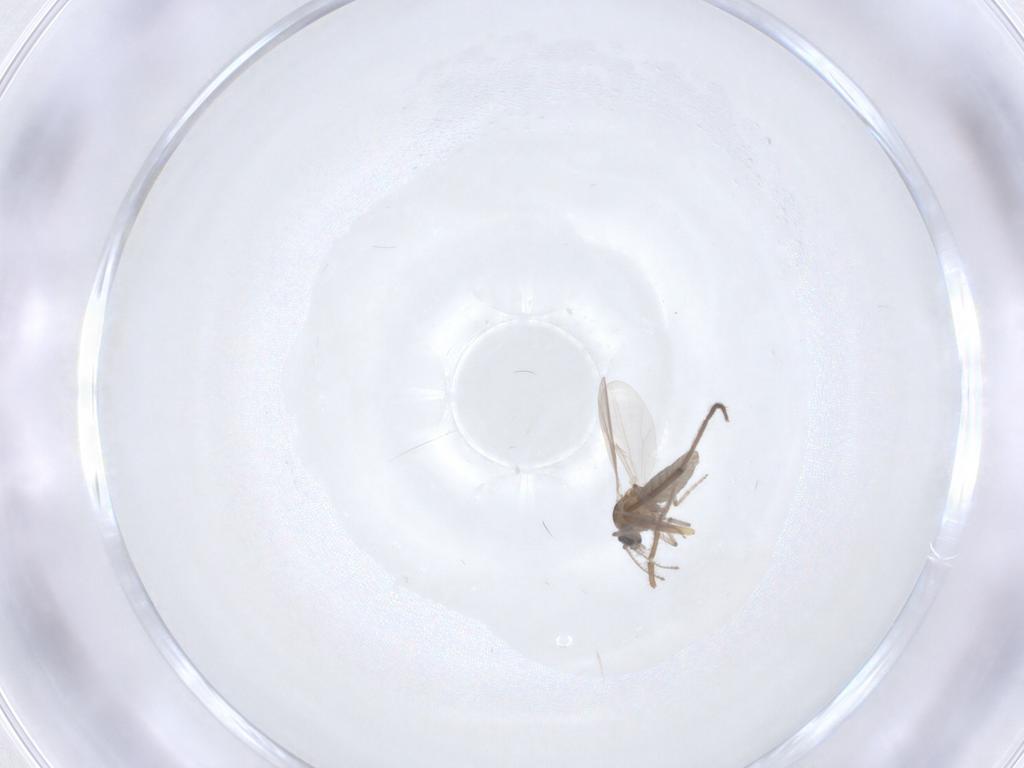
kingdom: Animalia
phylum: Arthropoda
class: Insecta
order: Diptera
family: Ceratopogonidae
